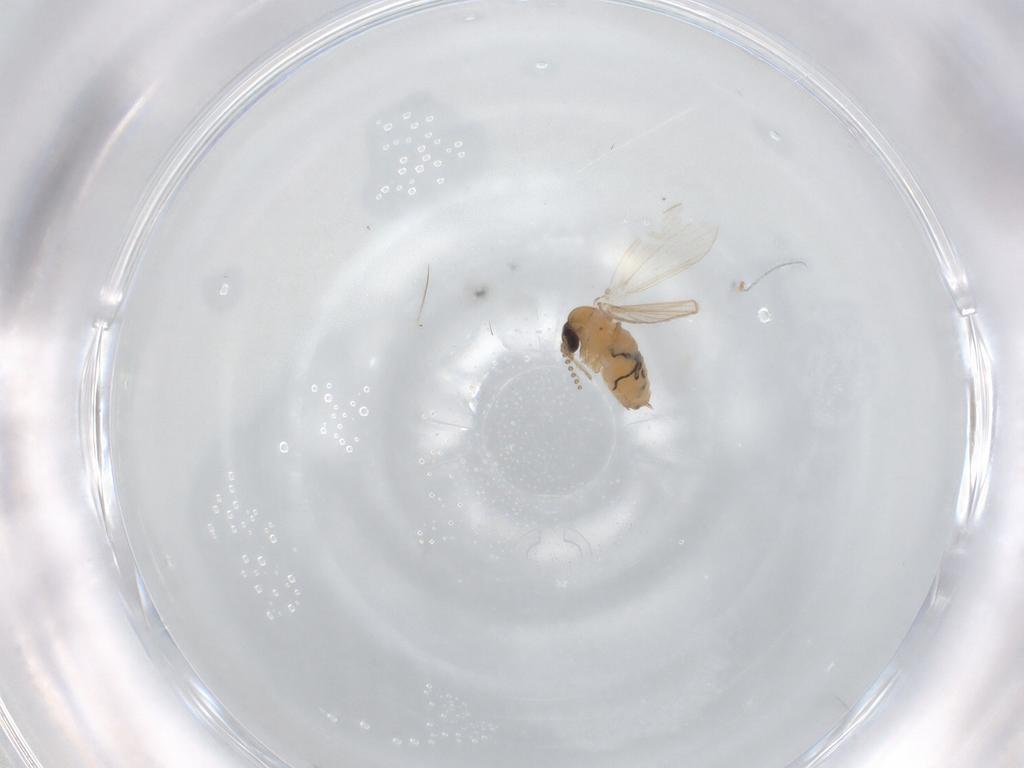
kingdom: Animalia
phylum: Arthropoda
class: Insecta
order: Diptera
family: Psychodidae
